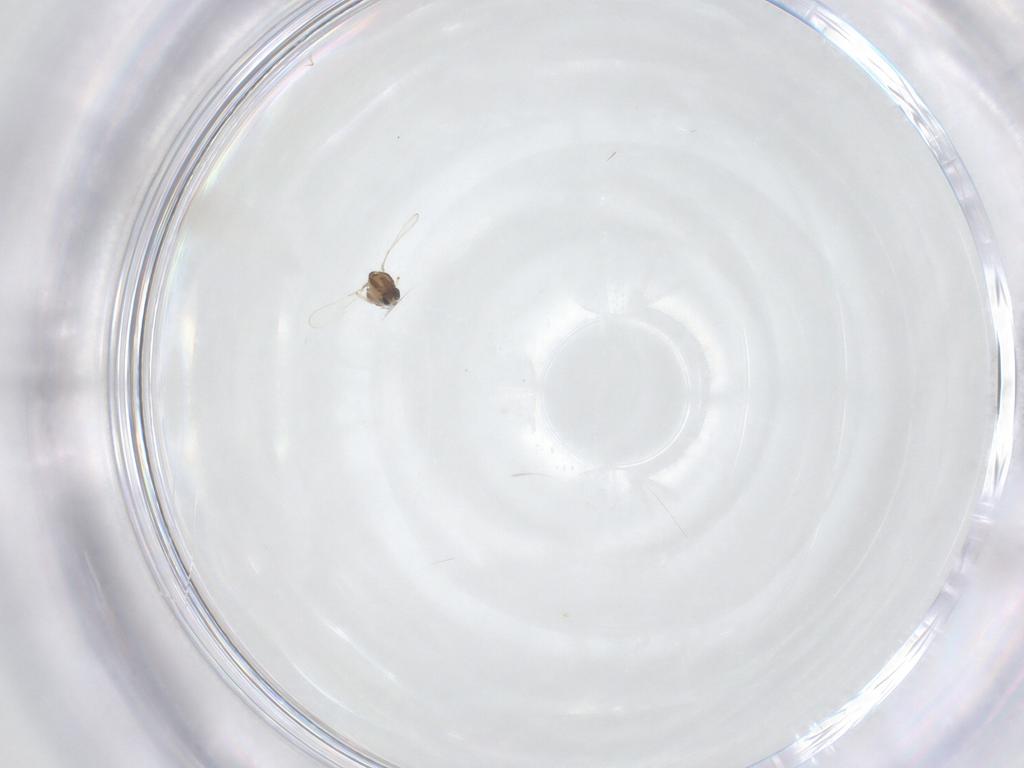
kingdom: Animalia
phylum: Arthropoda
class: Insecta
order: Diptera
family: Chironomidae
